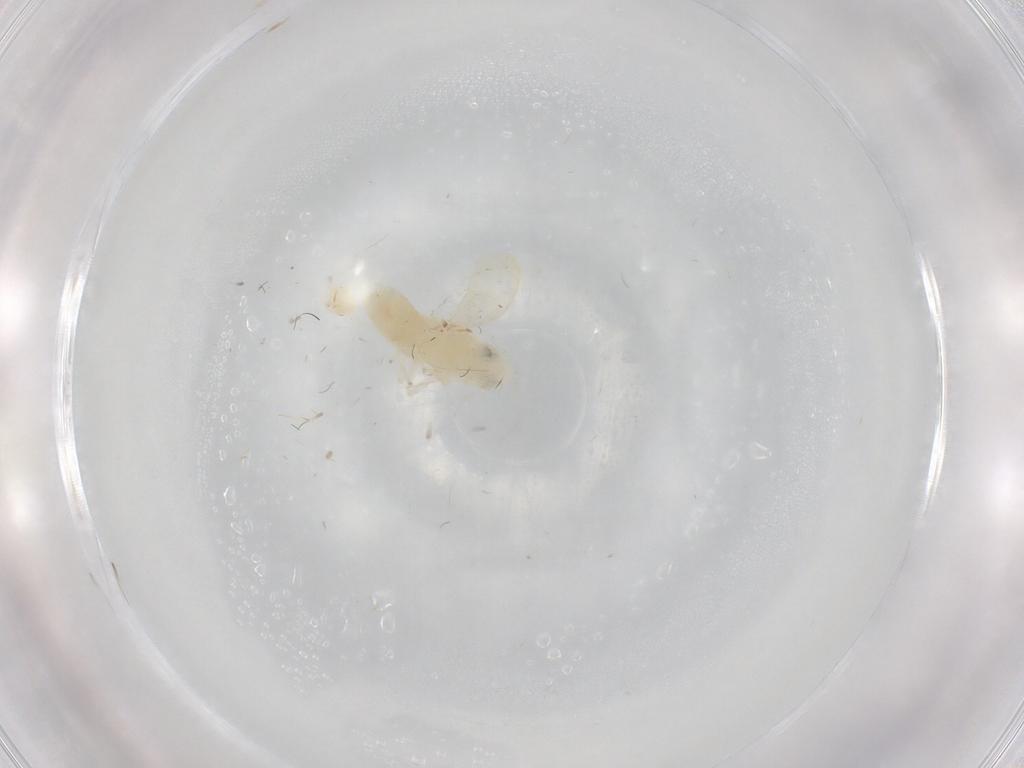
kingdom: Animalia
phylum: Arthropoda
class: Insecta
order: Hemiptera
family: Cicadellidae
